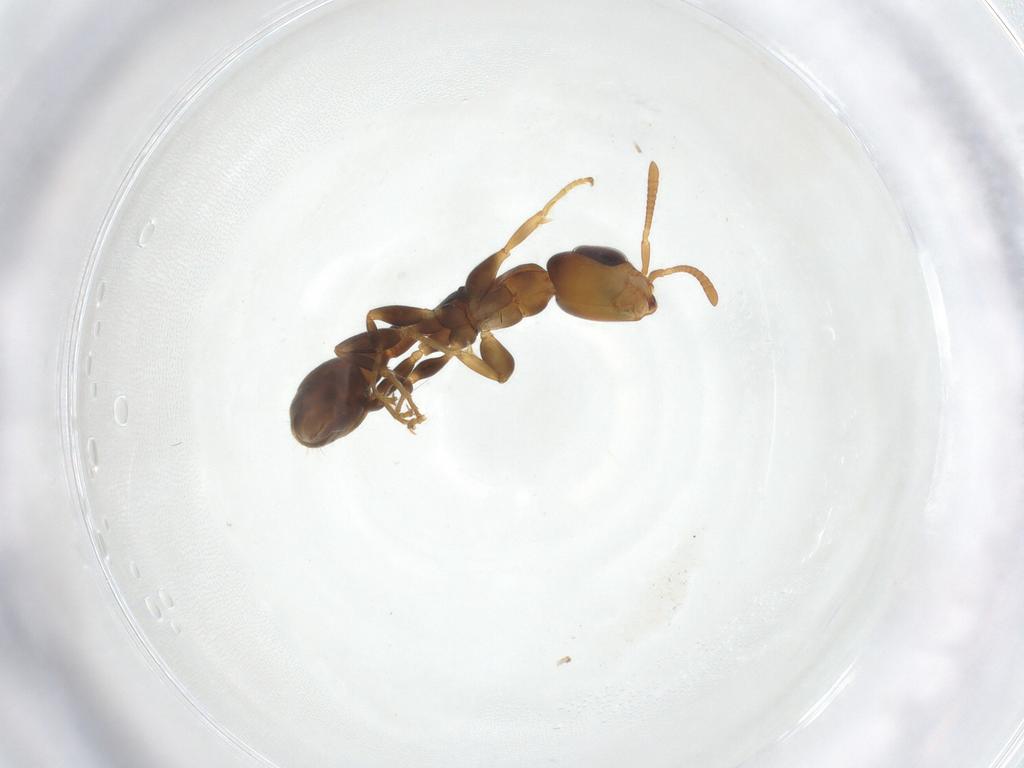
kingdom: Animalia
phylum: Arthropoda
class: Insecta
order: Hymenoptera
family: Formicidae
